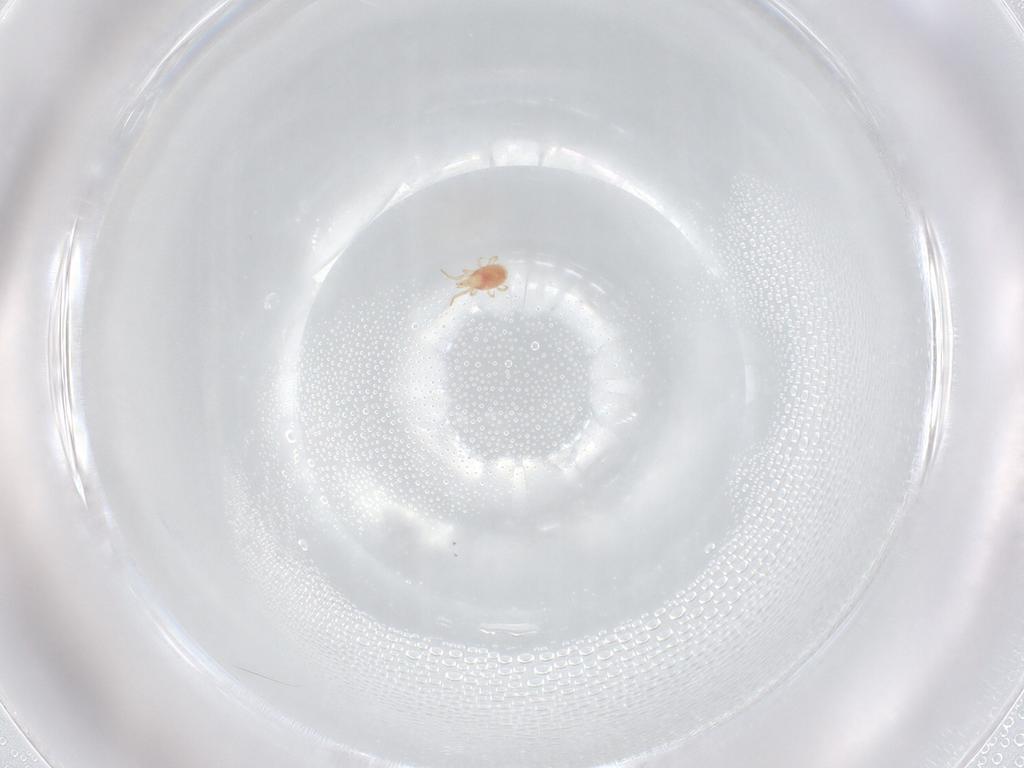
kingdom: Animalia
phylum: Arthropoda
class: Arachnida
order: Mesostigmata
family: Phytoseiidae
